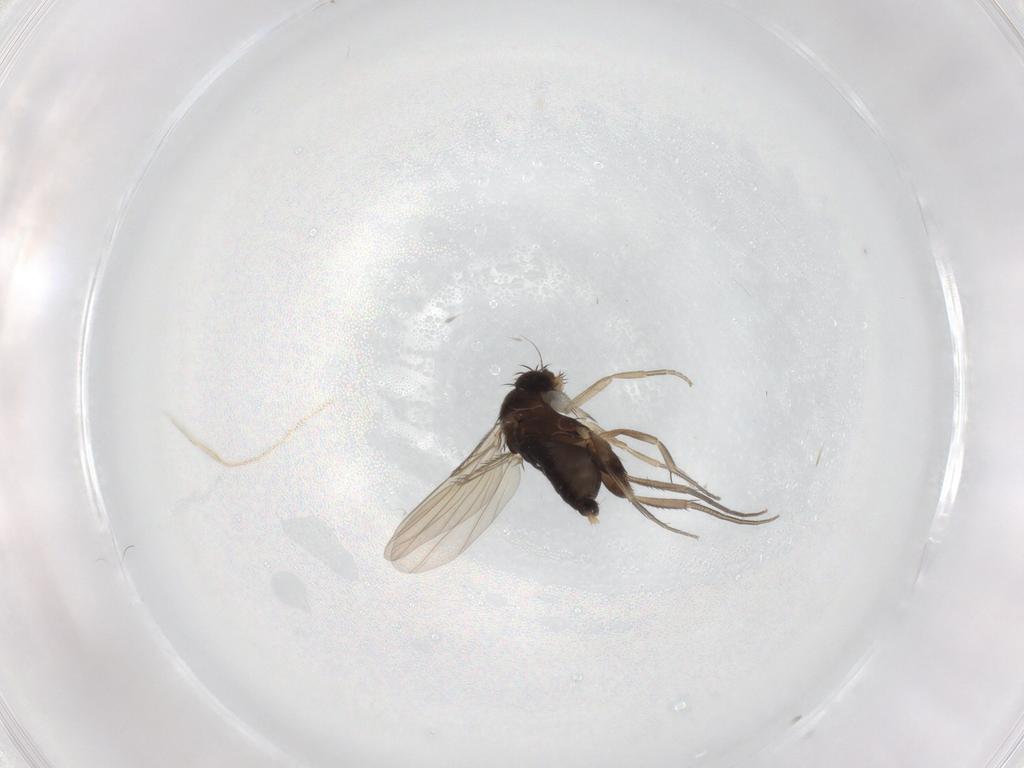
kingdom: Animalia
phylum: Arthropoda
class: Insecta
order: Diptera
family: Phoridae
